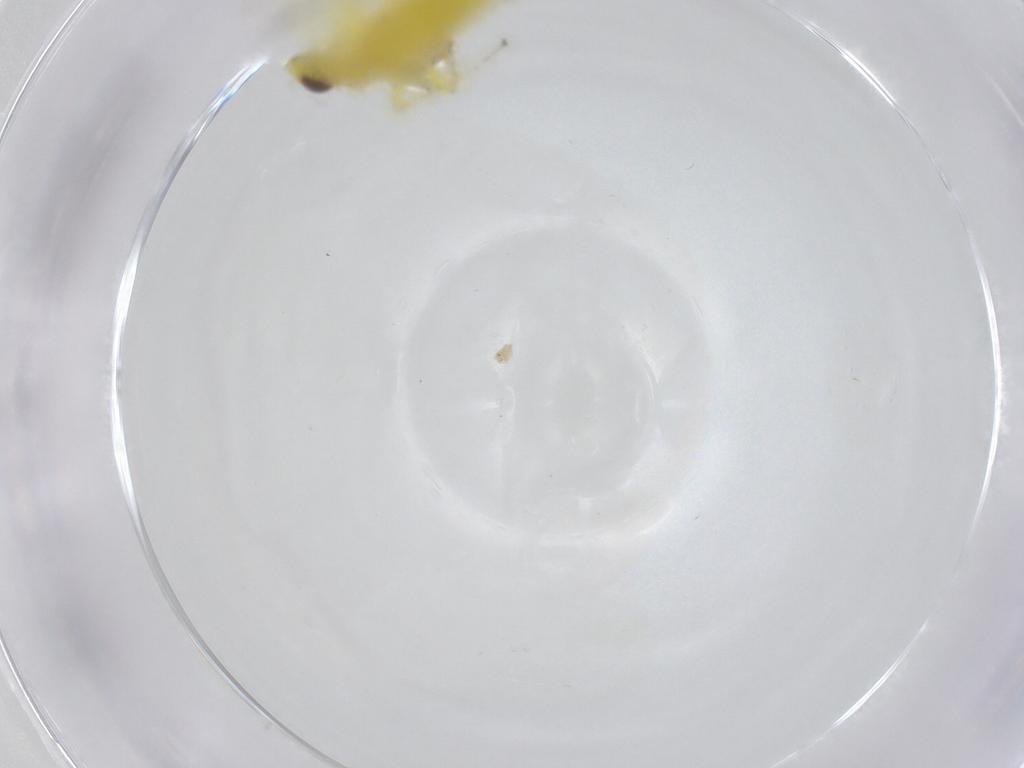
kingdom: Animalia
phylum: Arthropoda
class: Insecta
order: Hemiptera
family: Cicadellidae
